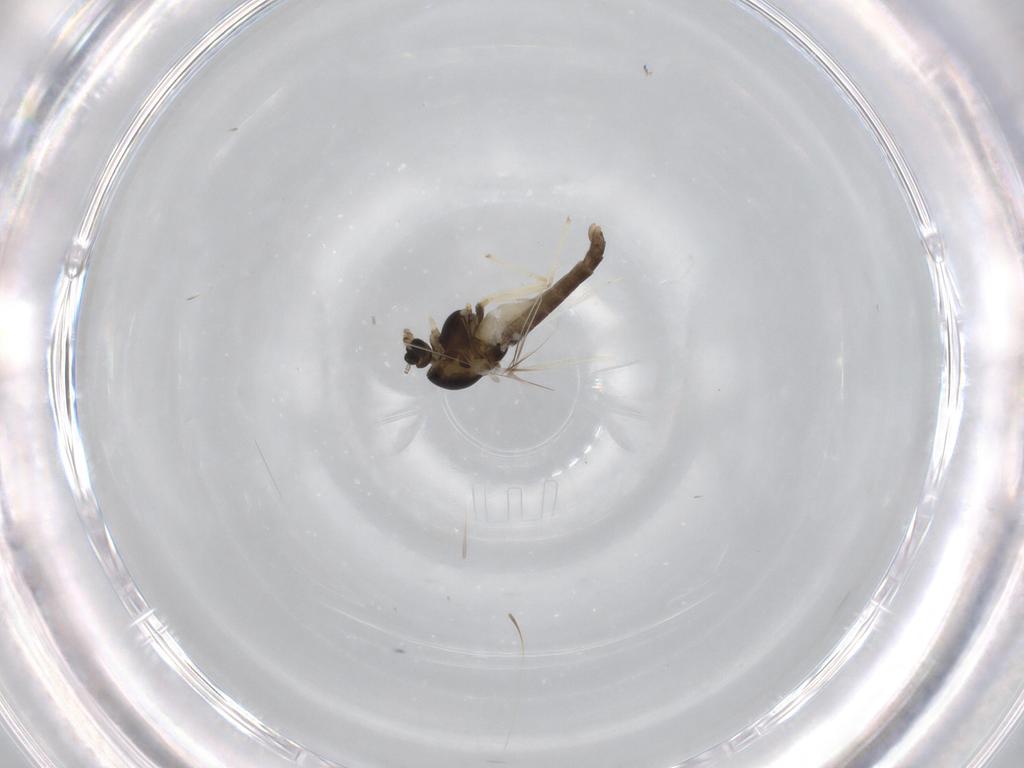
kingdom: Animalia
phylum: Arthropoda
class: Insecta
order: Diptera
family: Chironomidae
